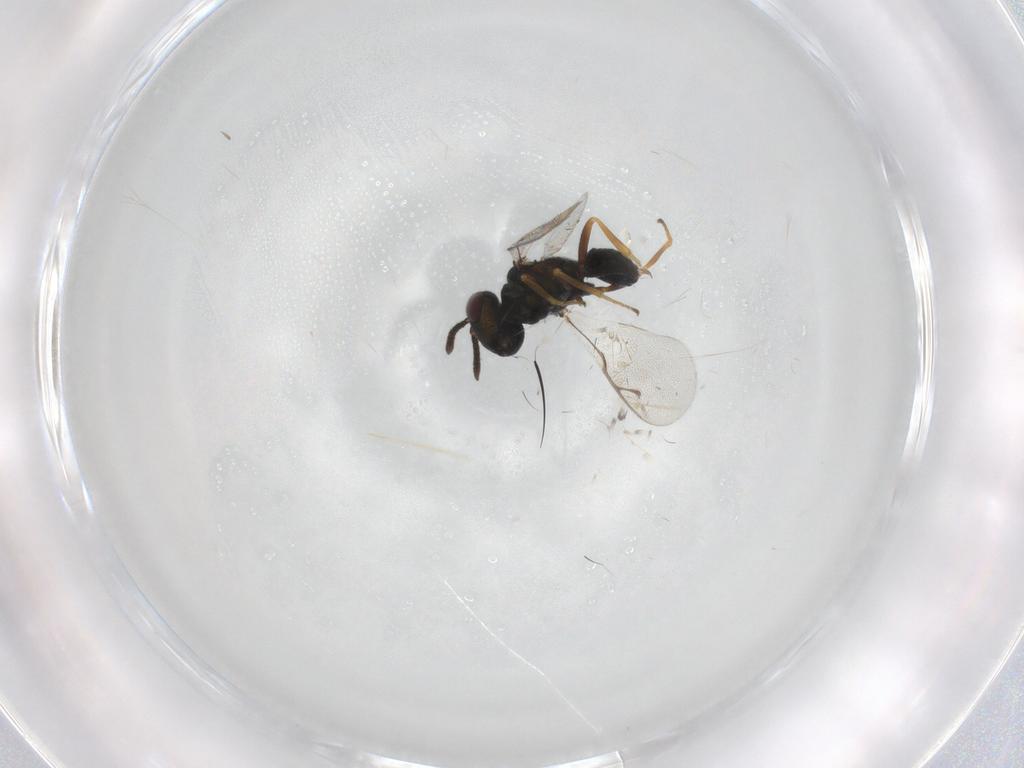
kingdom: Animalia
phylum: Arthropoda
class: Insecta
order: Hymenoptera
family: Pteromalidae
